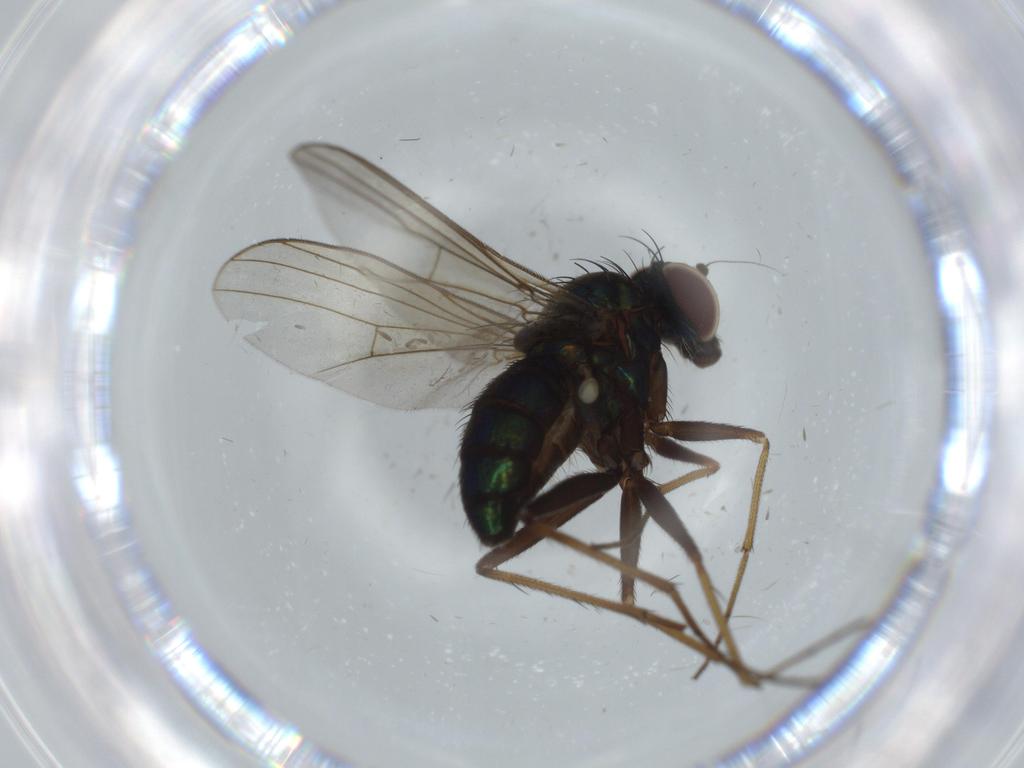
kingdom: Animalia
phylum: Arthropoda
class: Insecta
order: Diptera
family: Dolichopodidae
